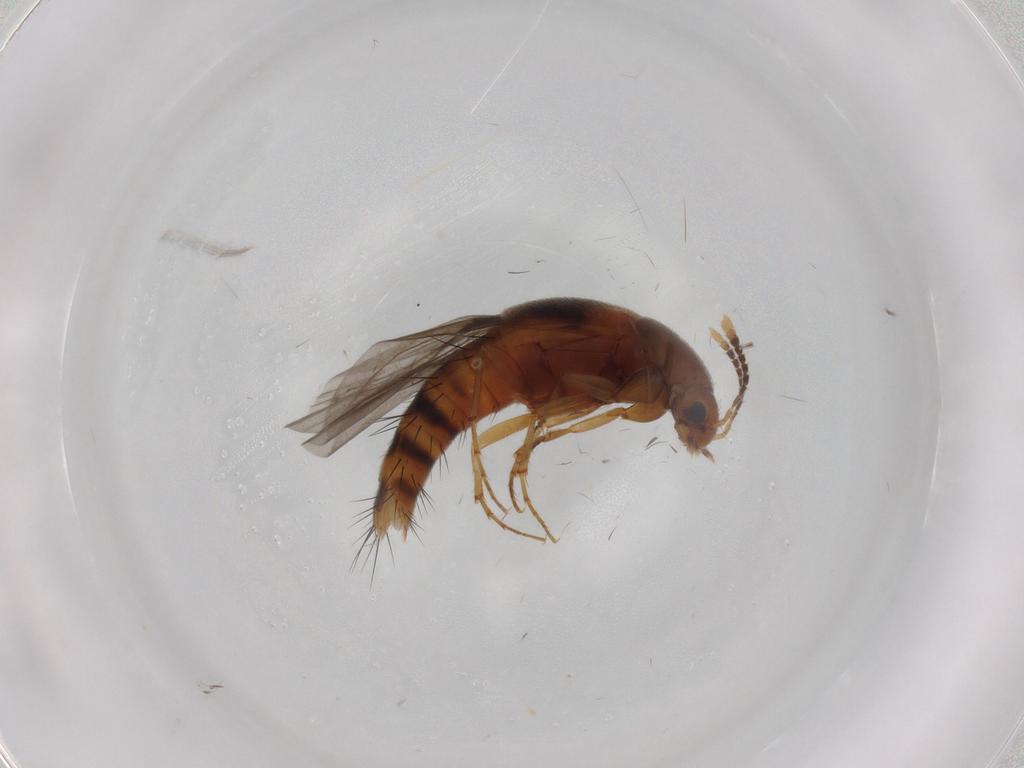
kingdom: Animalia
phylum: Arthropoda
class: Insecta
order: Coleoptera
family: Staphylinidae
